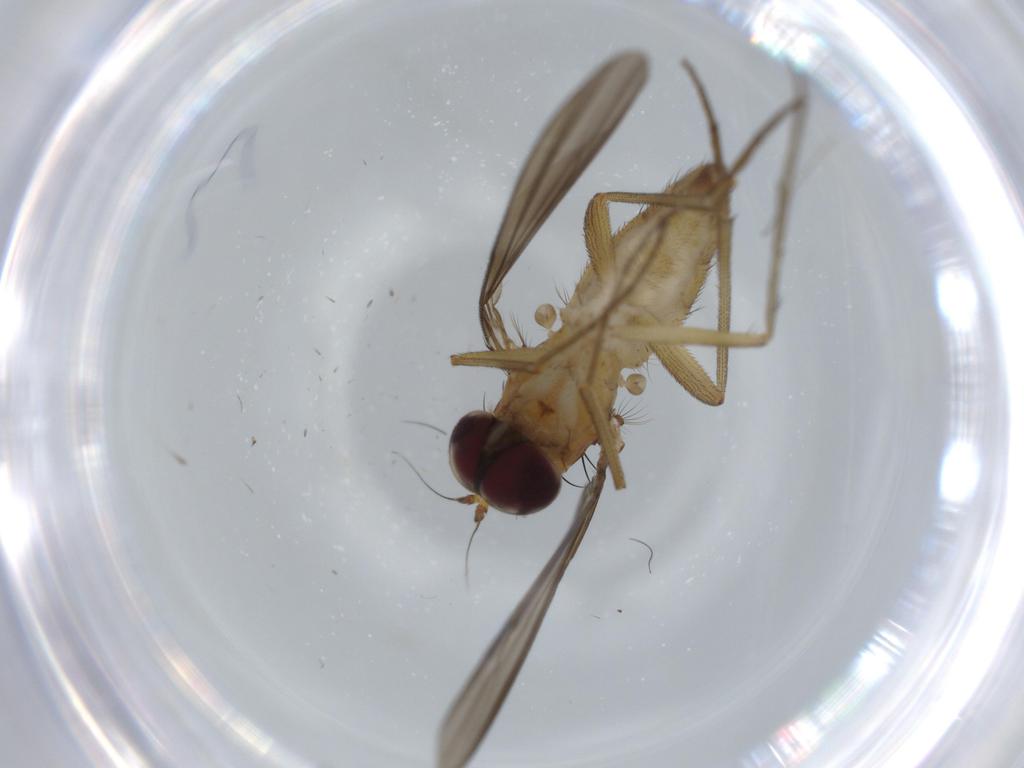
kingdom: Animalia
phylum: Arthropoda
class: Insecta
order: Diptera
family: Dolichopodidae
